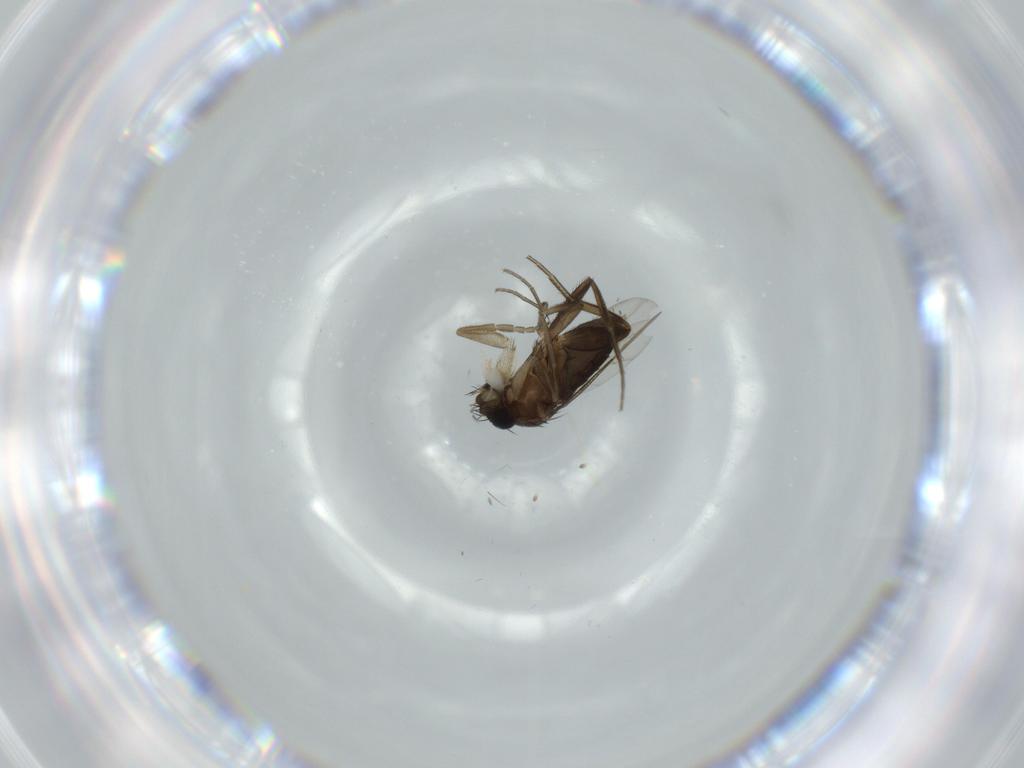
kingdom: Animalia
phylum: Arthropoda
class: Insecta
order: Diptera
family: Phoridae
